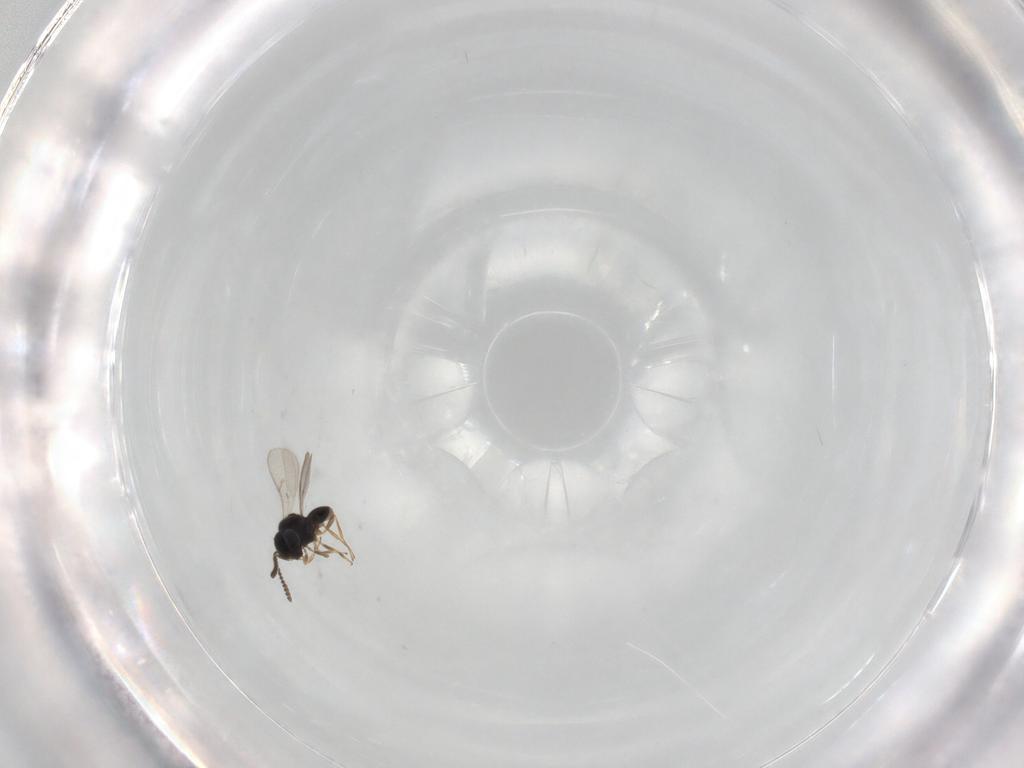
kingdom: Animalia
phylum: Arthropoda
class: Insecta
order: Hymenoptera
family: Scelionidae
